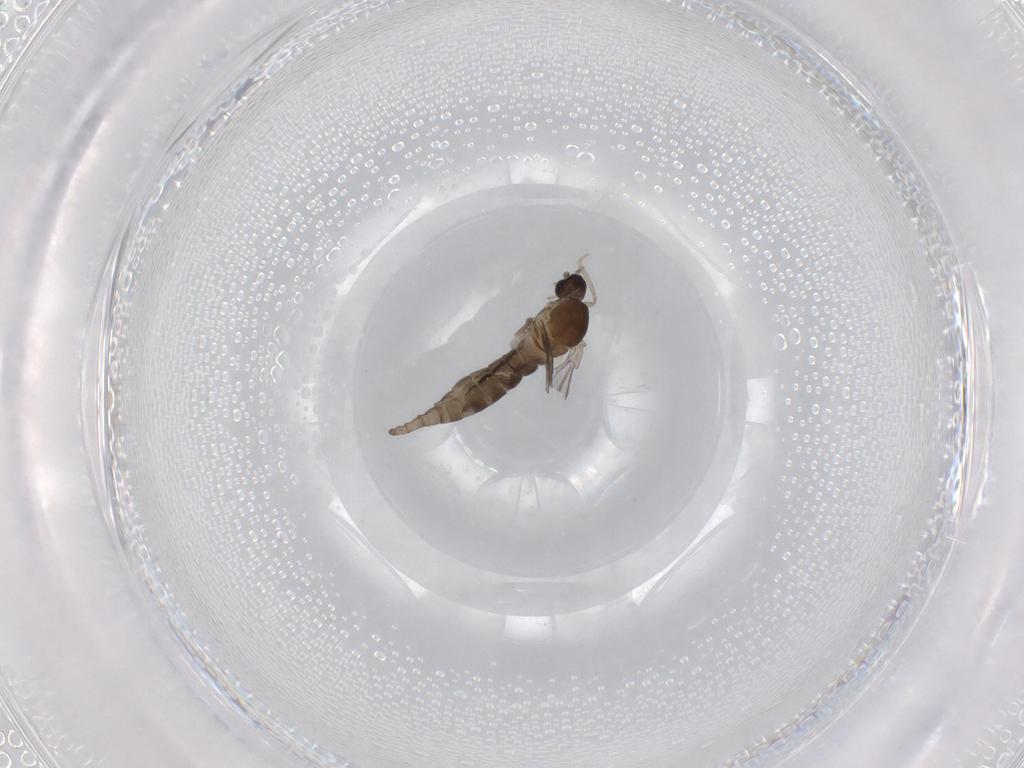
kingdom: Animalia
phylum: Arthropoda
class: Insecta
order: Diptera
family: Cecidomyiidae
